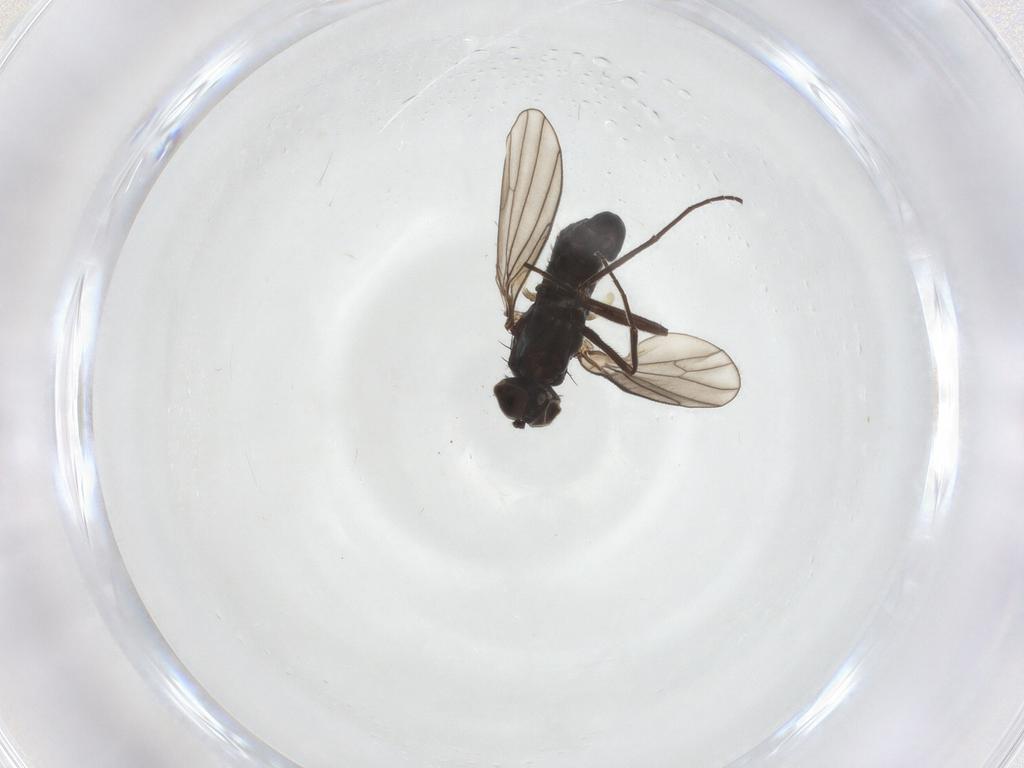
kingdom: Animalia
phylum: Arthropoda
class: Insecta
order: Diptera
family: Dolichopodidae
